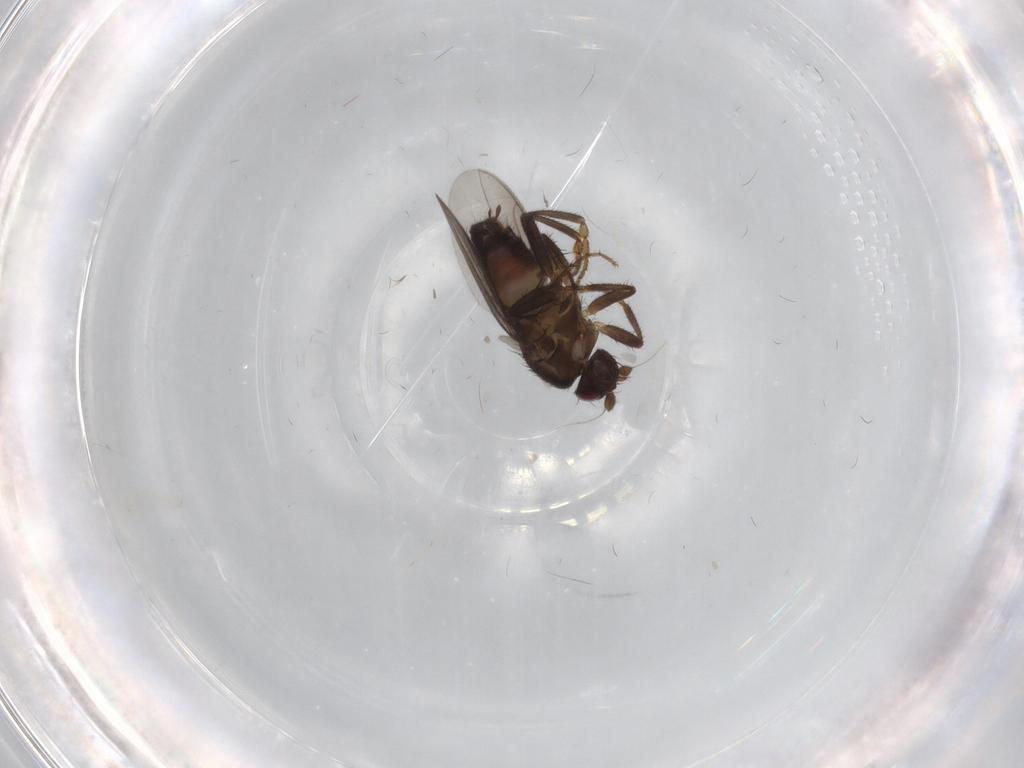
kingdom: Animalia
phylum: Arthropoda
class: Insecta
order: Diptera
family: Sphaeroceridae
